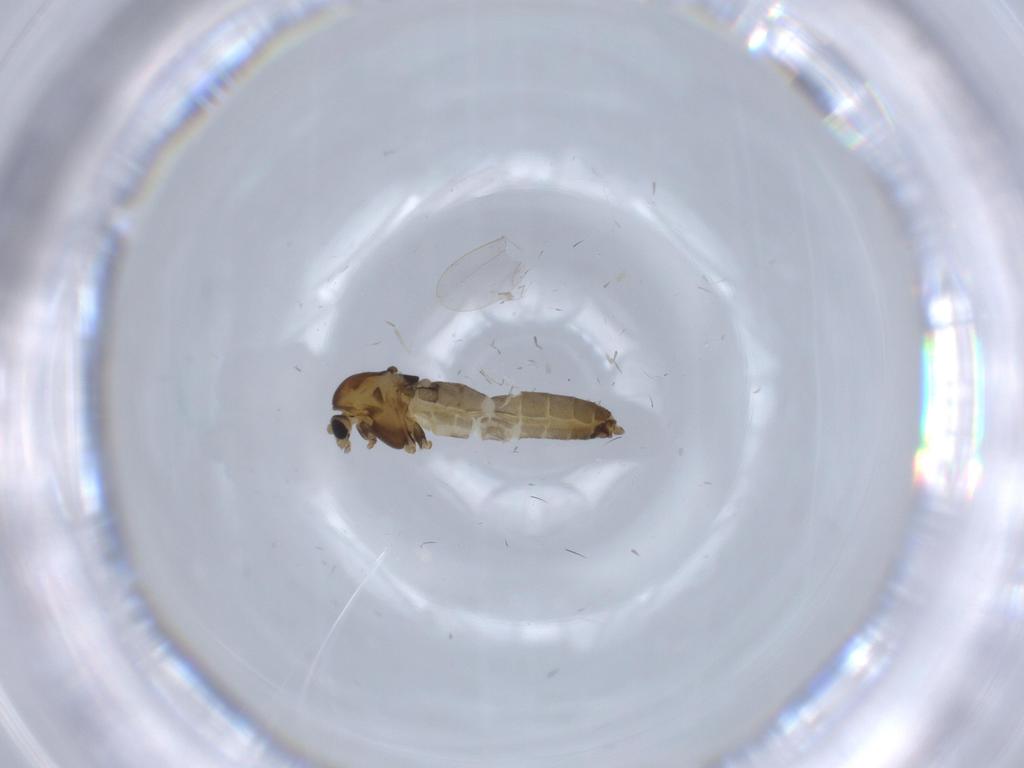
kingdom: Animalia
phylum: Arthropoda
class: Insecta
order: Diptera
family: Chironomidae
